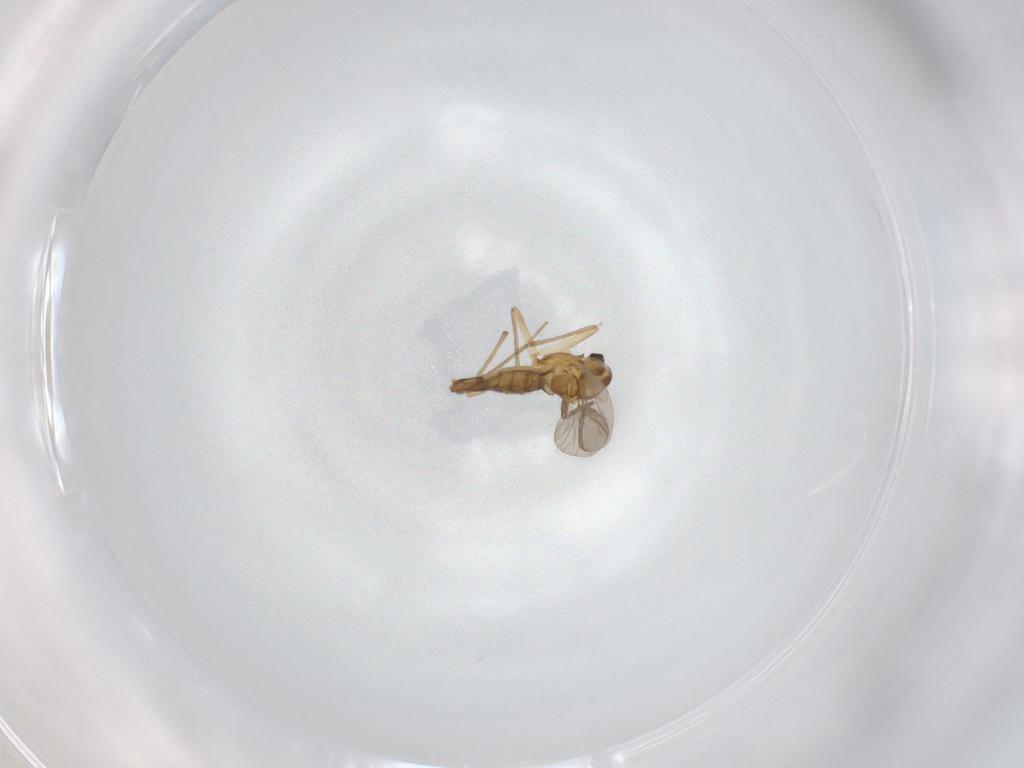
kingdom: Animalia
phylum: Arthropoda
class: Insecta
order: Diptera
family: Chironomidae
